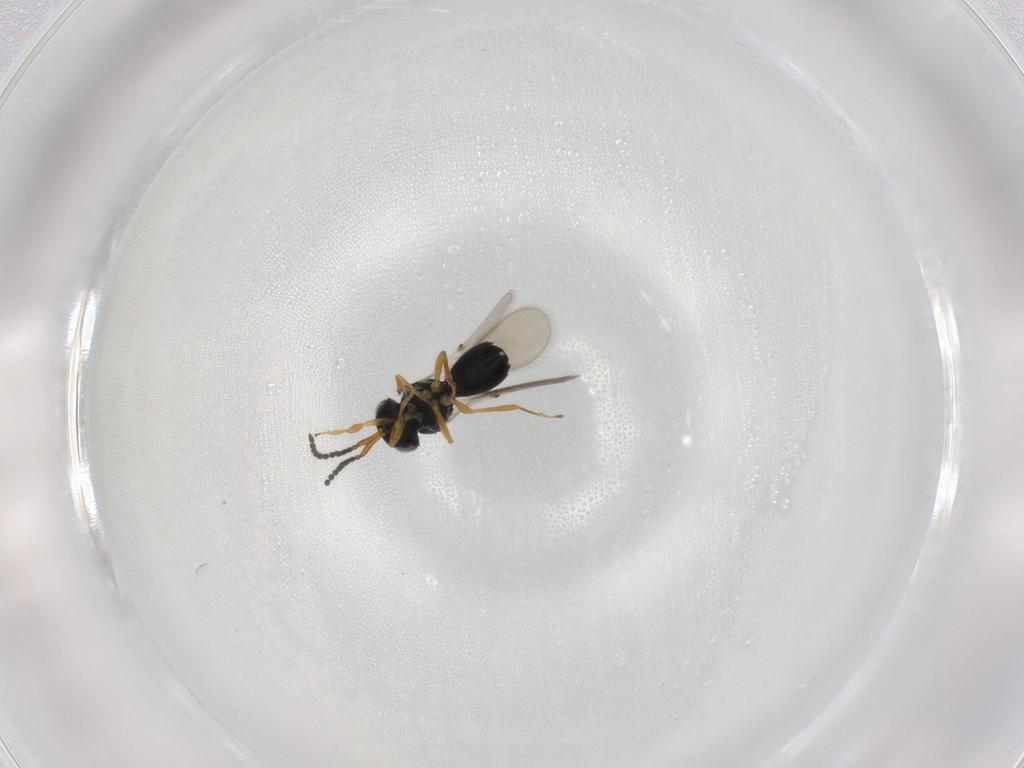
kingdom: Animalia
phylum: Arthropoda
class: Insecta
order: Hymenoptera
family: Scelionidae
